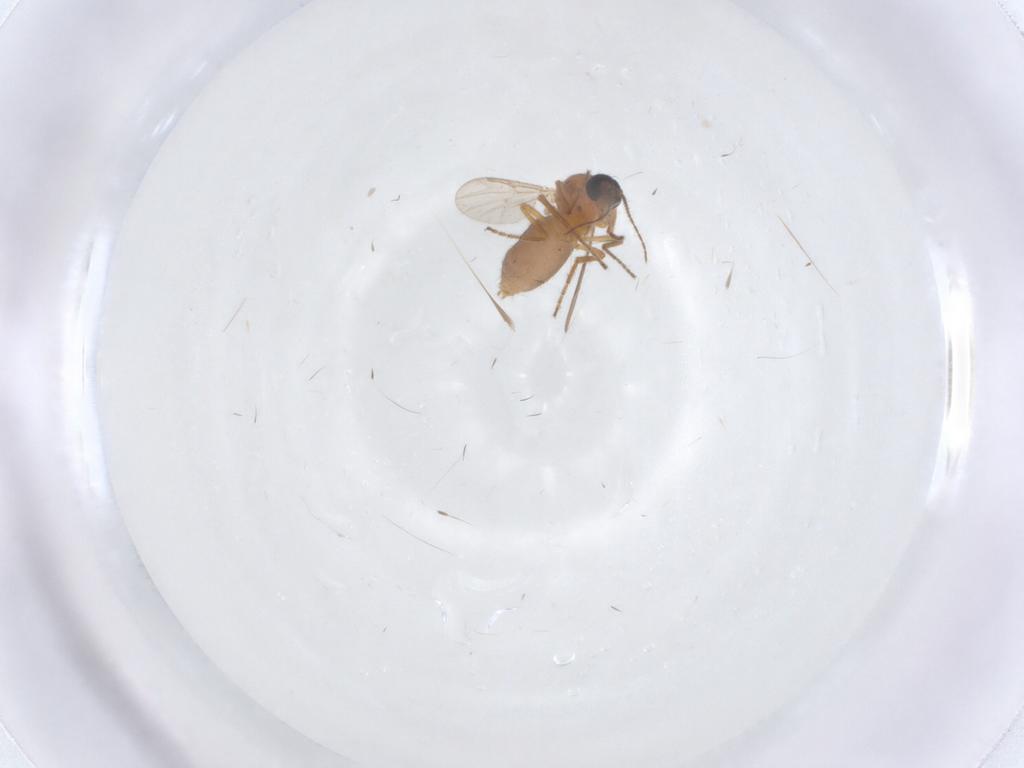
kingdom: Animalia
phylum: Arthropoda
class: Insecta
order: Diptera
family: Ceratopogonidae
